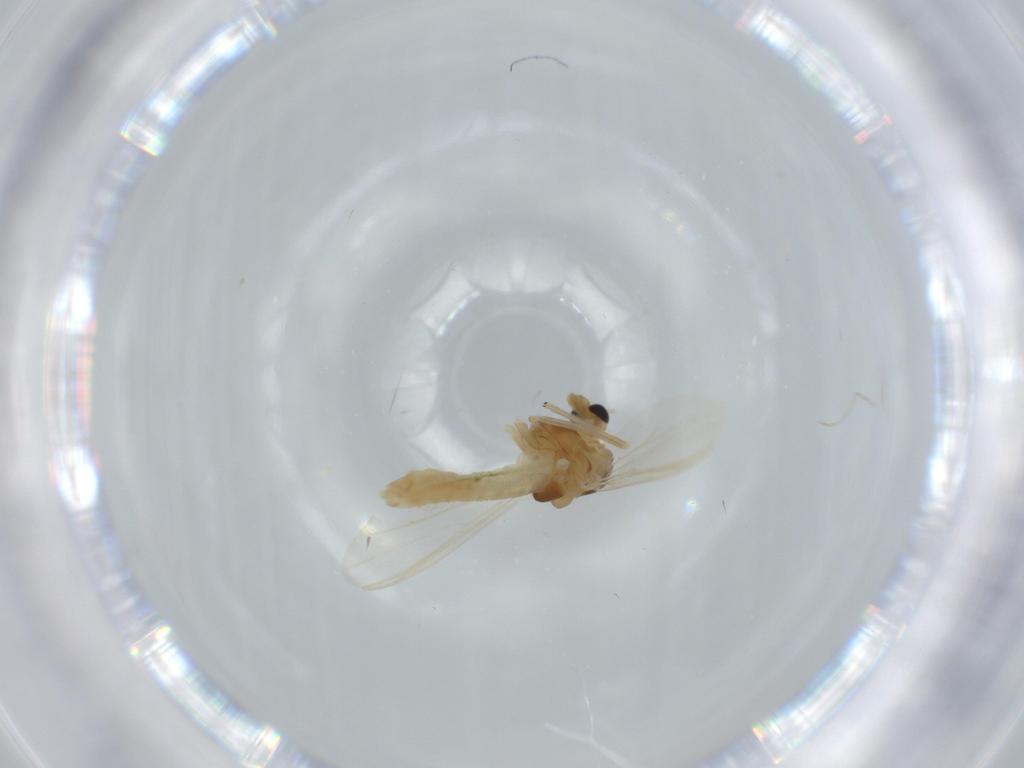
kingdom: Animalia
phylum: Arthropoda
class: Insecta
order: Diptera
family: Chironomidae
